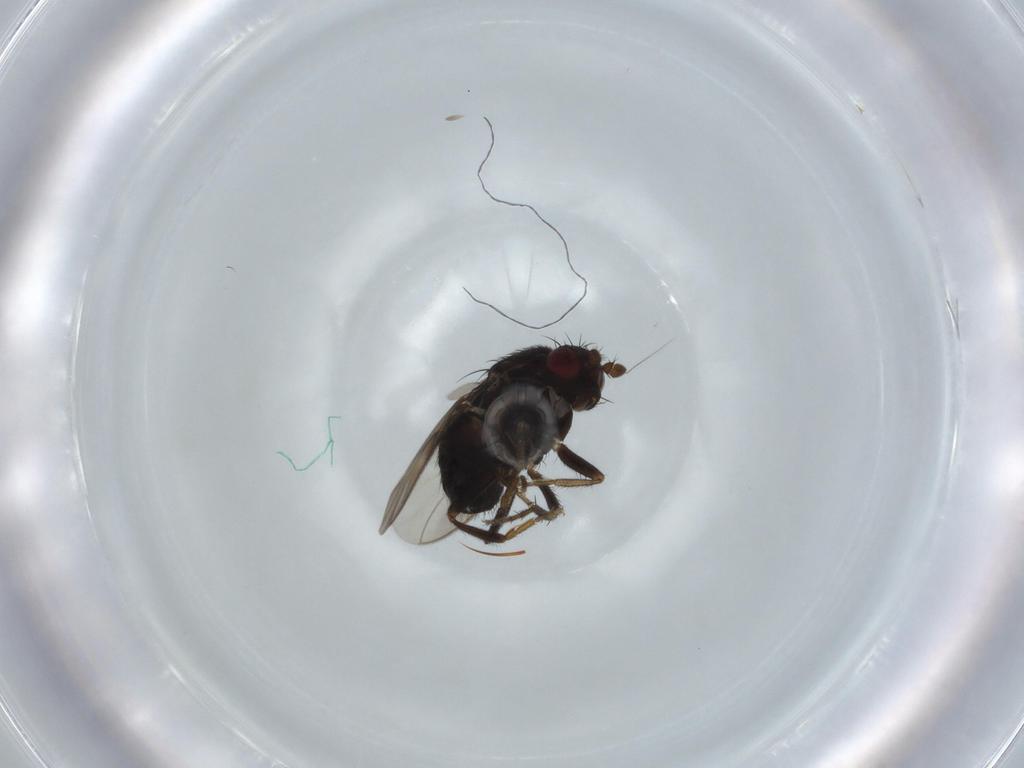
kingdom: Animalia
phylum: Arthropoda
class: Insecta
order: Diptera
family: Sphaeroceridae
